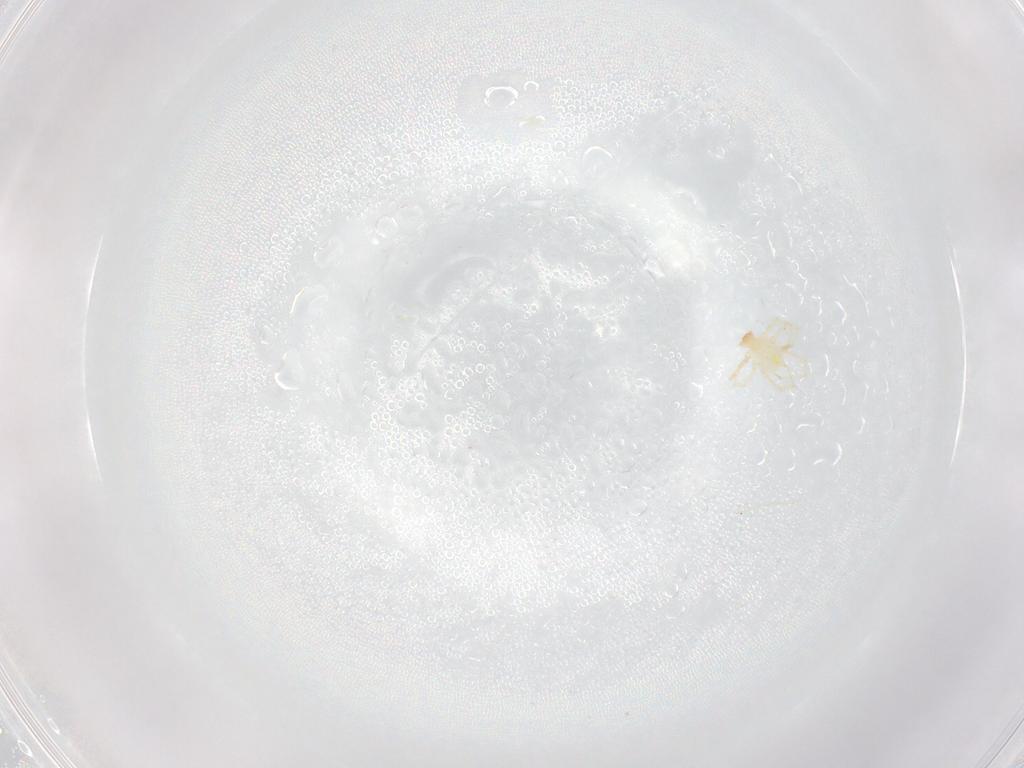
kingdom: Animalia
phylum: Arthropoda
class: Arachnida
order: Trombidiformes
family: Erythraeidae
